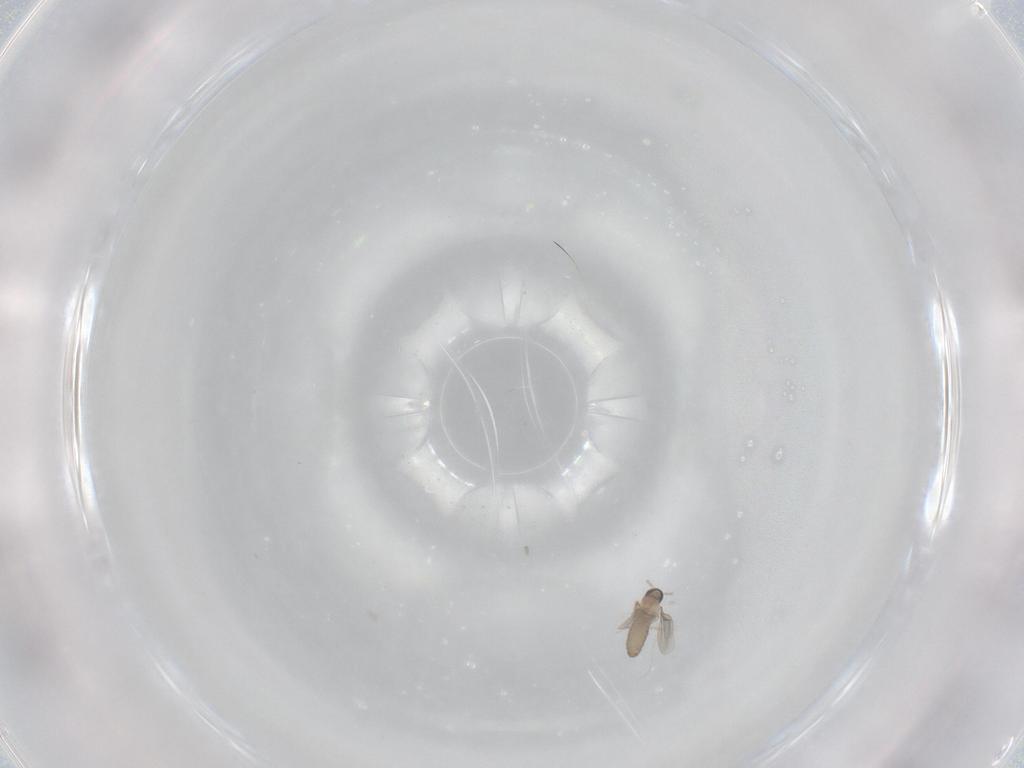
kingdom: Animalia
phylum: Arthropoda
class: Insecta
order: Diptera
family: Cecidomyiidae
